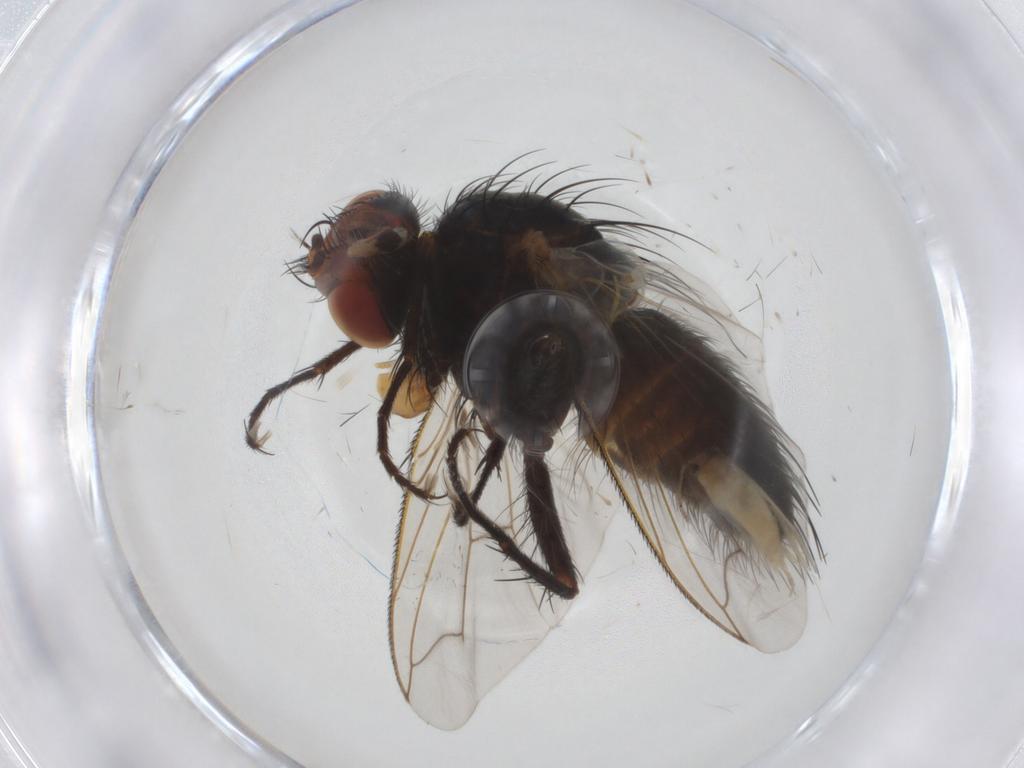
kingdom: Animalia
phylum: Arthropoda
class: Insecta
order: Diptera
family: Tachinidae
